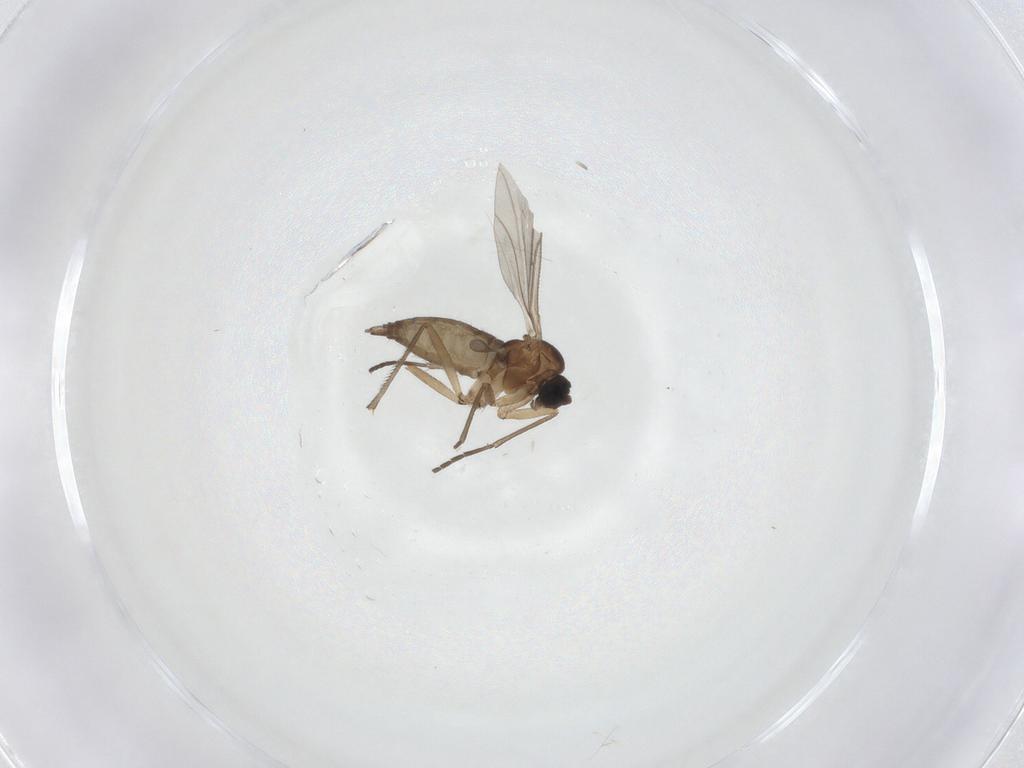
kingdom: Animalia
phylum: Arthropoda
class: Insecta
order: Diptera
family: Sciaridae
